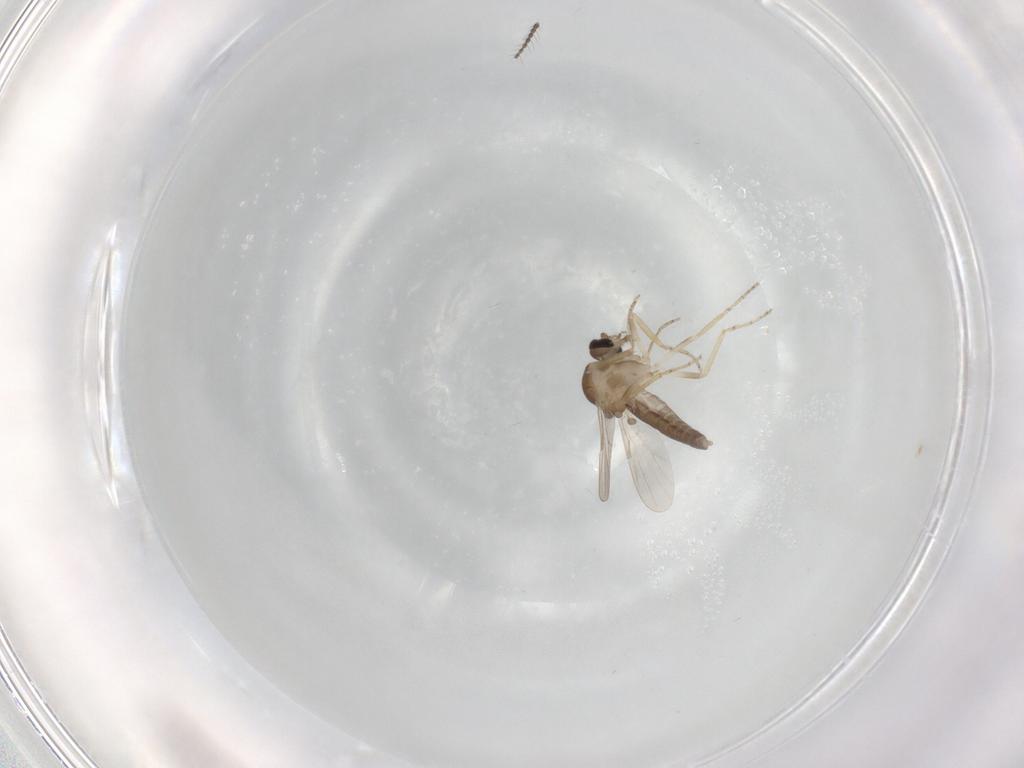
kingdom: Animalia
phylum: Arthropoda
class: Insecta
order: Diptera
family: Ceratopogonidae
